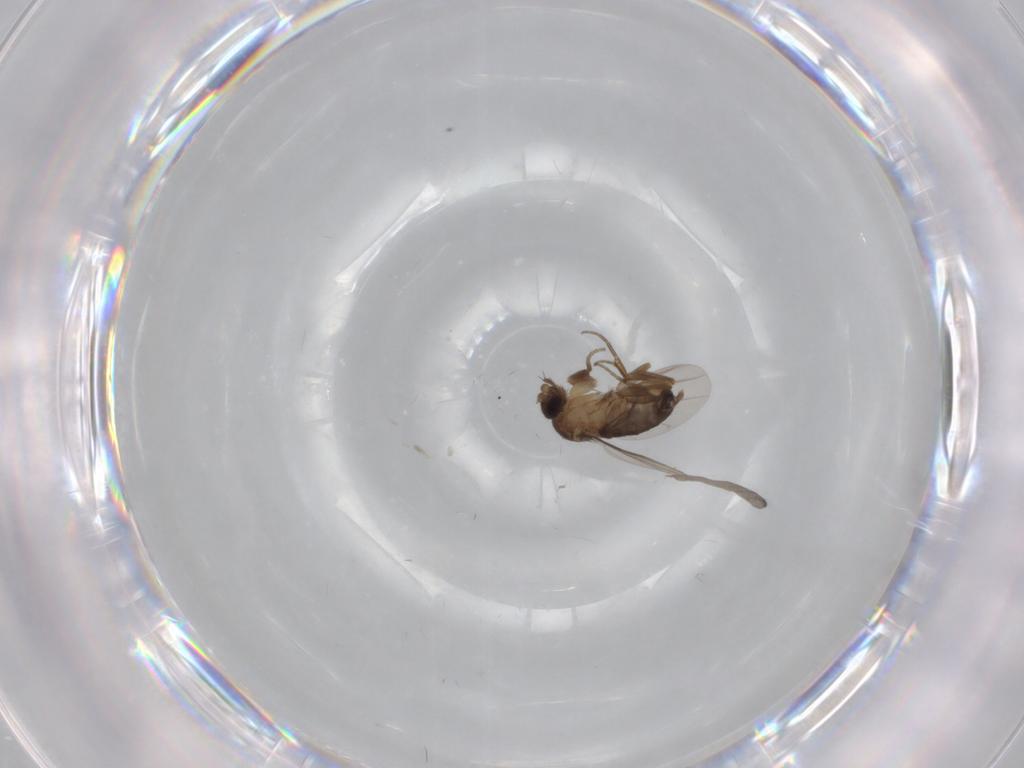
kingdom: Animalia
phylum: Arthropoda
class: Insecta
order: Diptera
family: Phoridae
